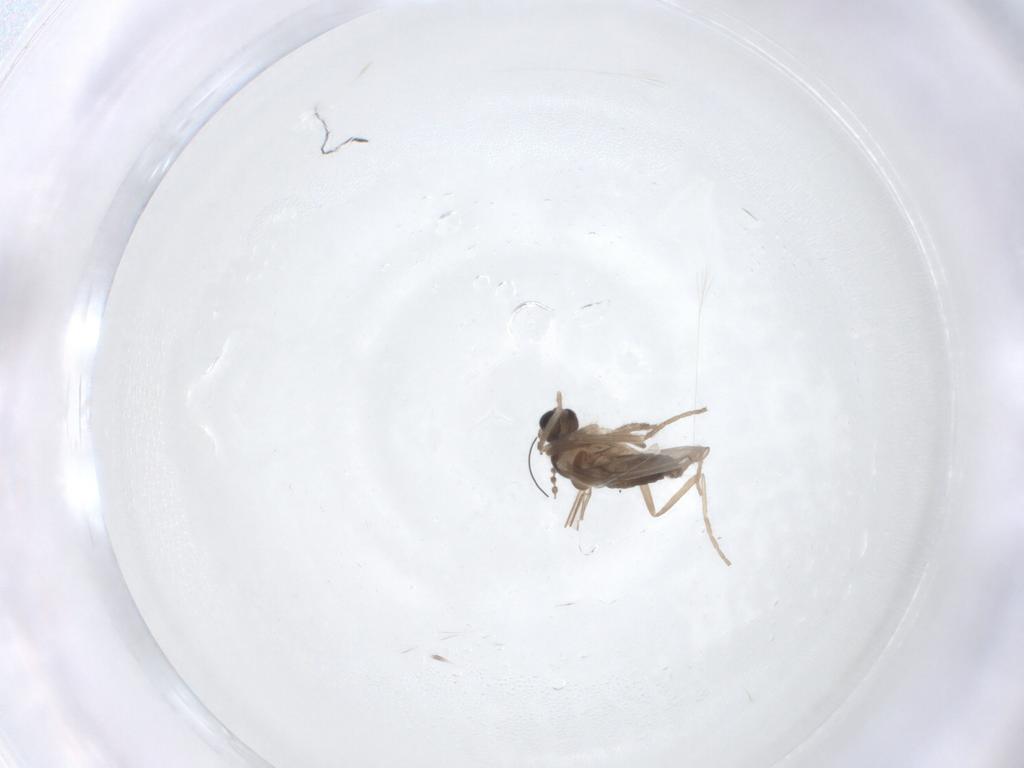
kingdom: Animalia
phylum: Arthropoda
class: Insecta
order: Diptera
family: Cecidomyiidae
